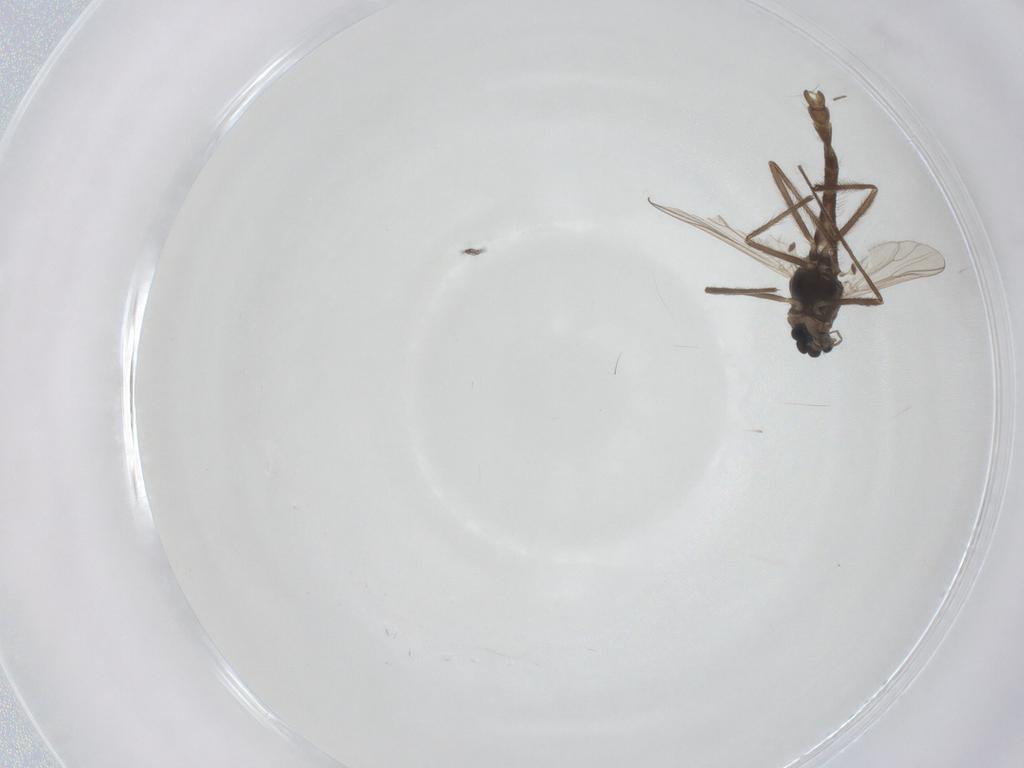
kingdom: Animalia
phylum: Arthropoda
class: Insecta
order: Diptera
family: Chironomidae
